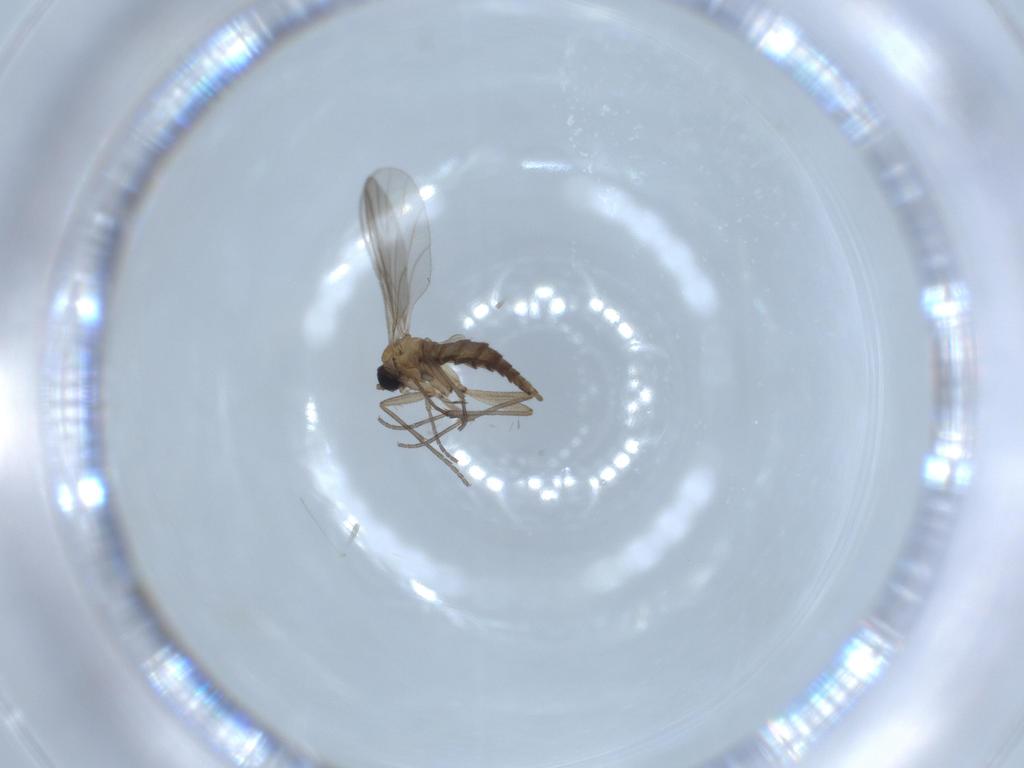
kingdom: Animalia
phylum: Arthropoda
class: Insecta
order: Diptera
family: Sciaridae
